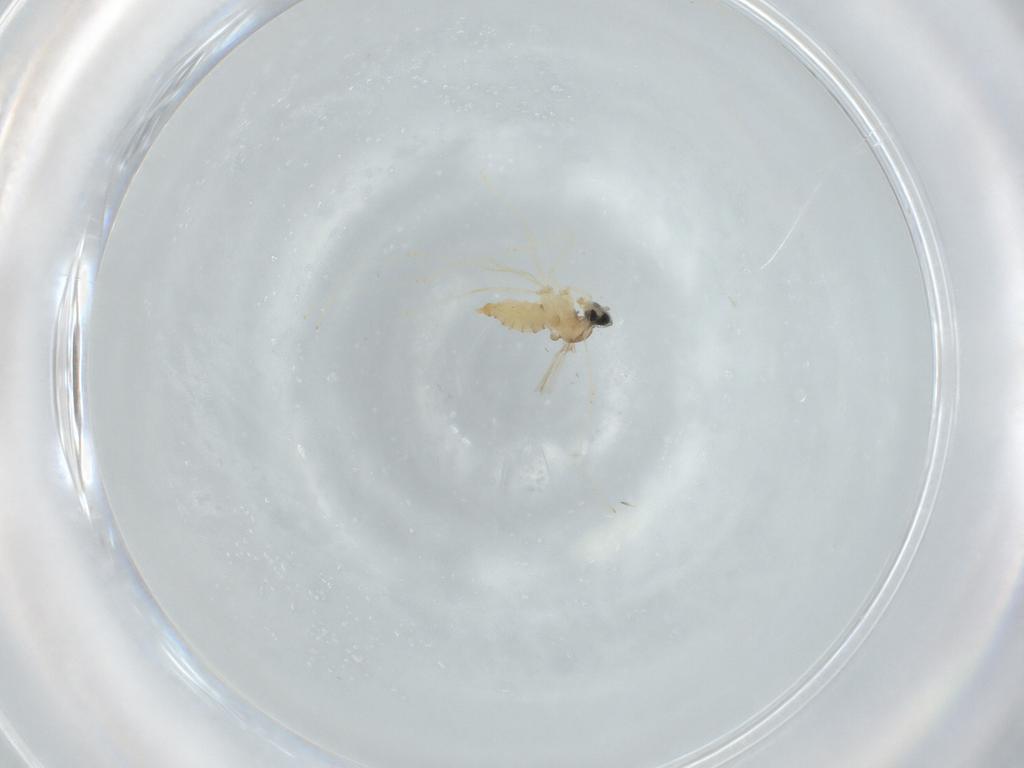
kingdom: Animalia
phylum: Arthropoda
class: Insecta
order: Diptera
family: Cecidomyiidae
